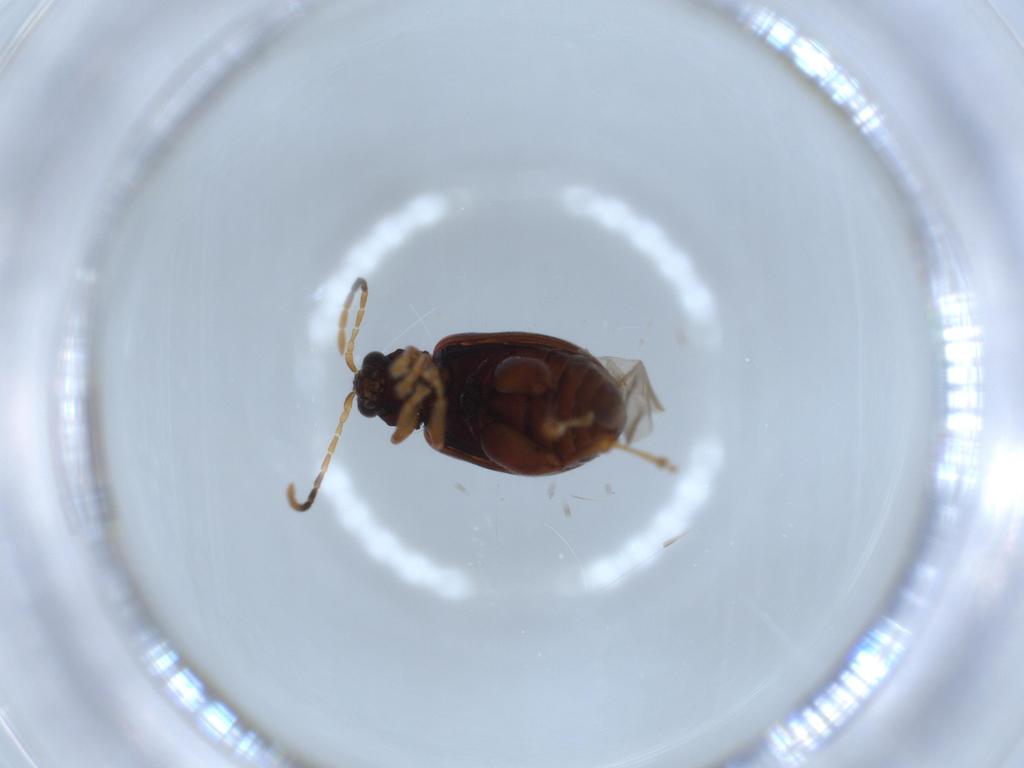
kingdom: Animalia
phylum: Arthropoda
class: Insecta
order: Coleoptera
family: Chrysomelidae
